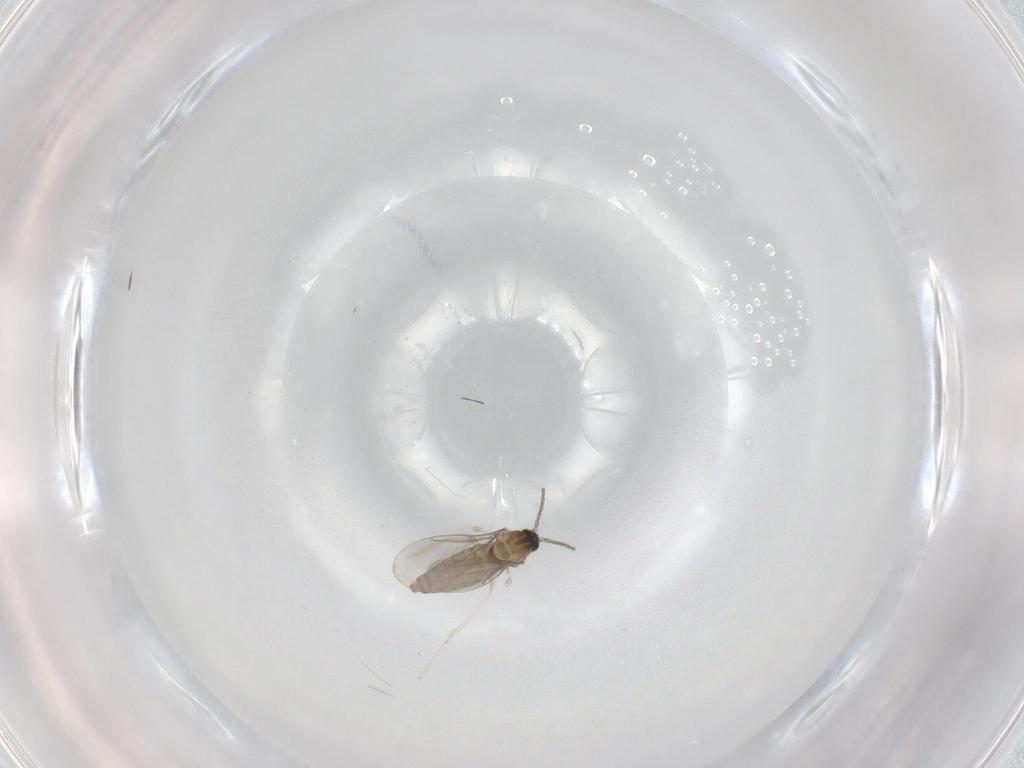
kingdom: Animalia
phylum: Arthropoda
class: Insecta
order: Diptera
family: Cecidomyiidae
